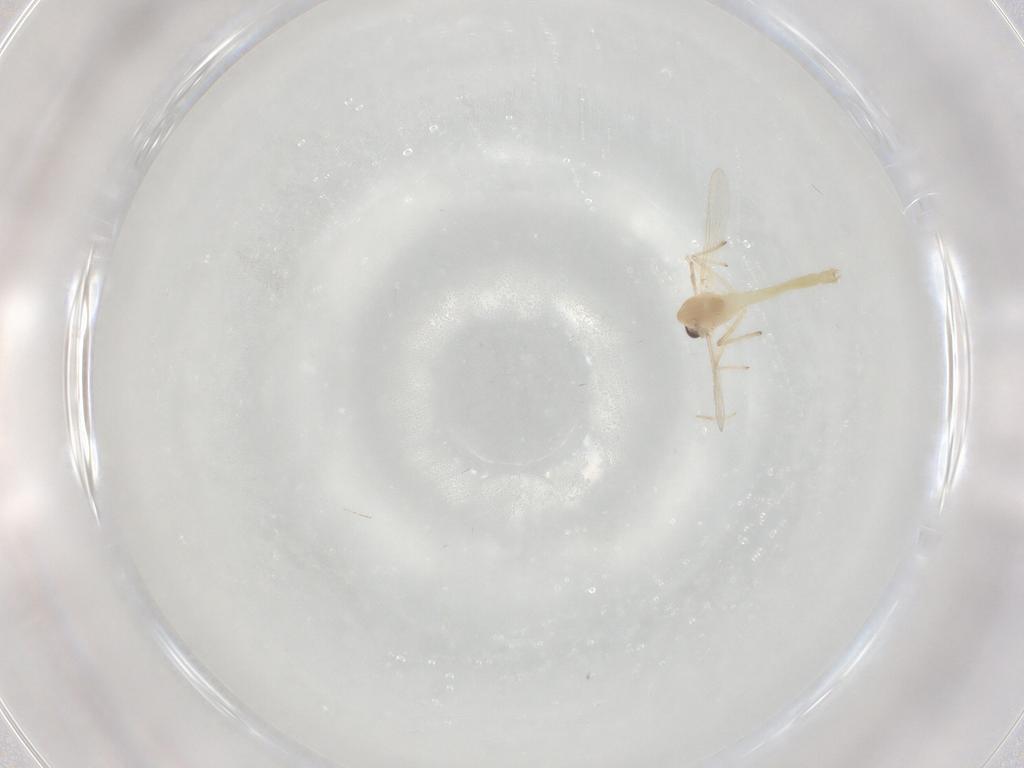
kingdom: Animalia
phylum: Arthropoda
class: Insecta
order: Diptera
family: Chironomidae
